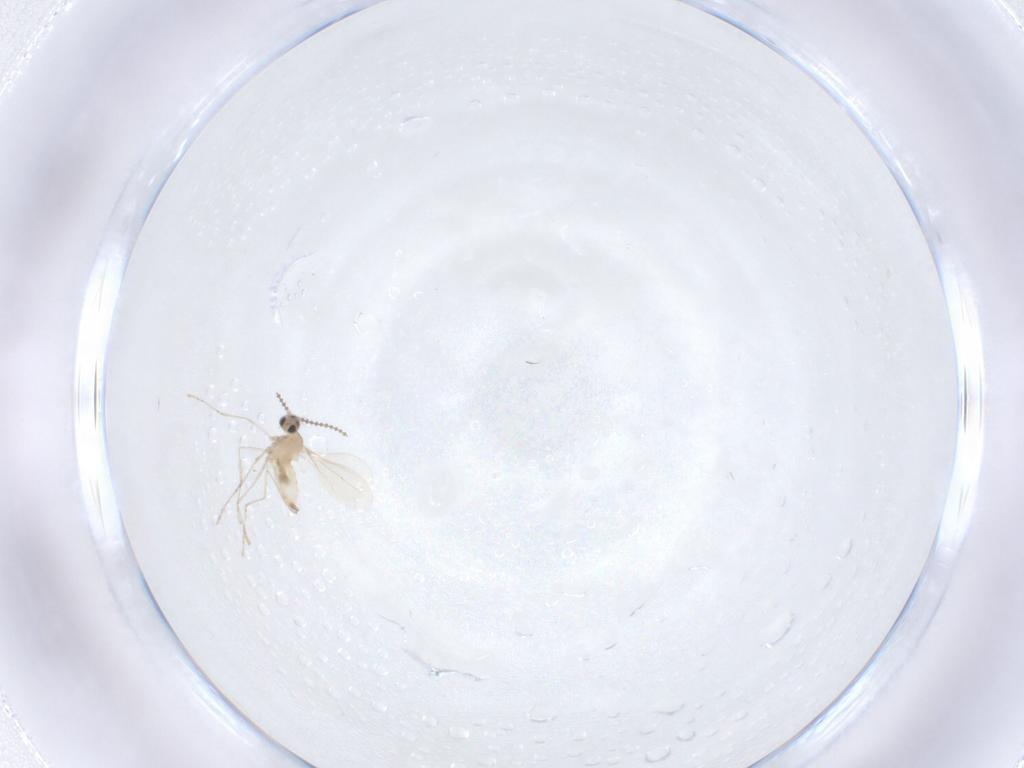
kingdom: Animalia
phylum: Arthropoda
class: Insecta
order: Diptera
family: Cecidomyiidae
